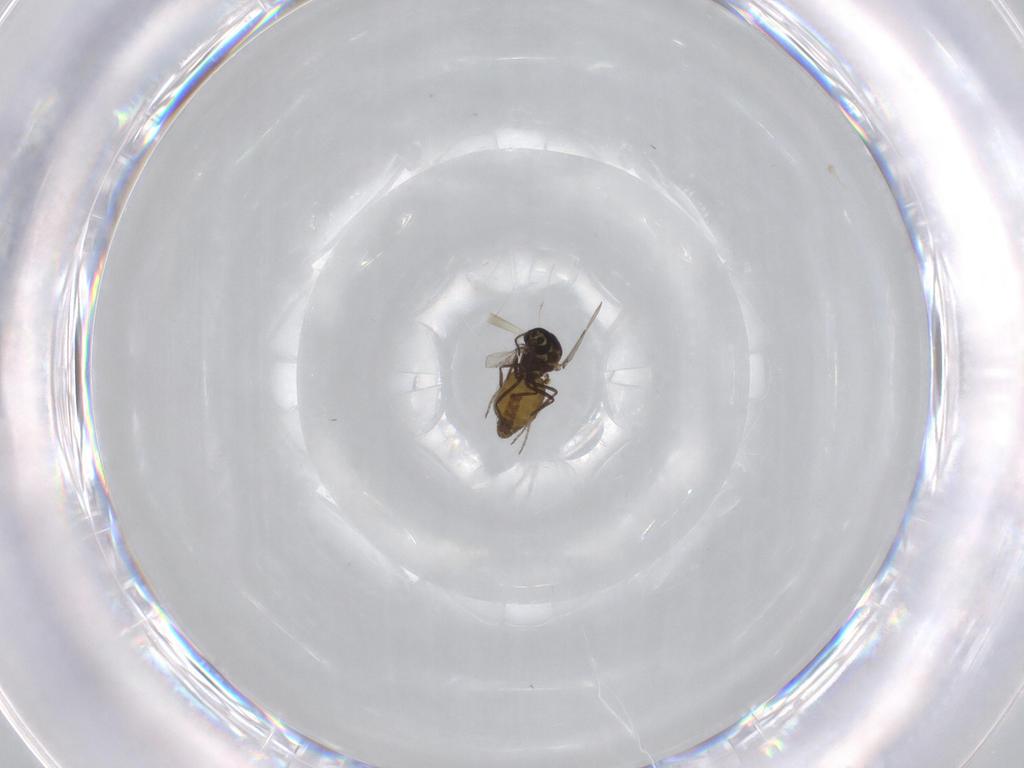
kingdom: Animalia
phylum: Arthropoda
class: Insecta
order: Diptera
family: Ceratopogonidae
